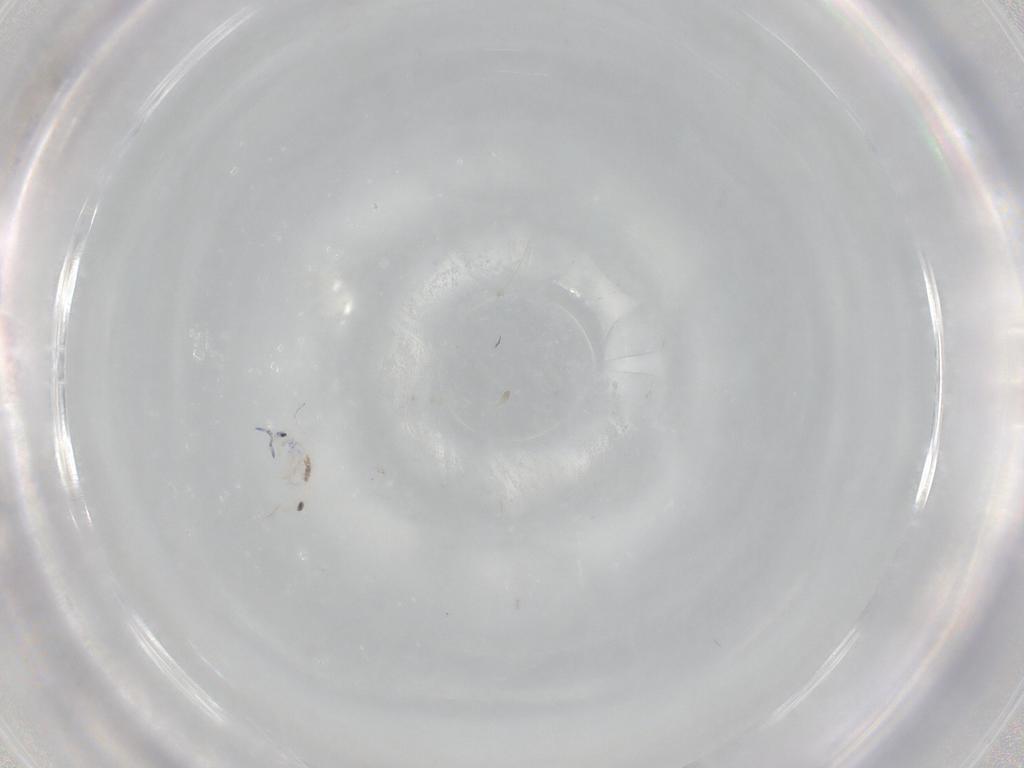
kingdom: Animalia
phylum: Arthropoda
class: Collembola
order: Entomobryomorpha
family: Entomobryidae
